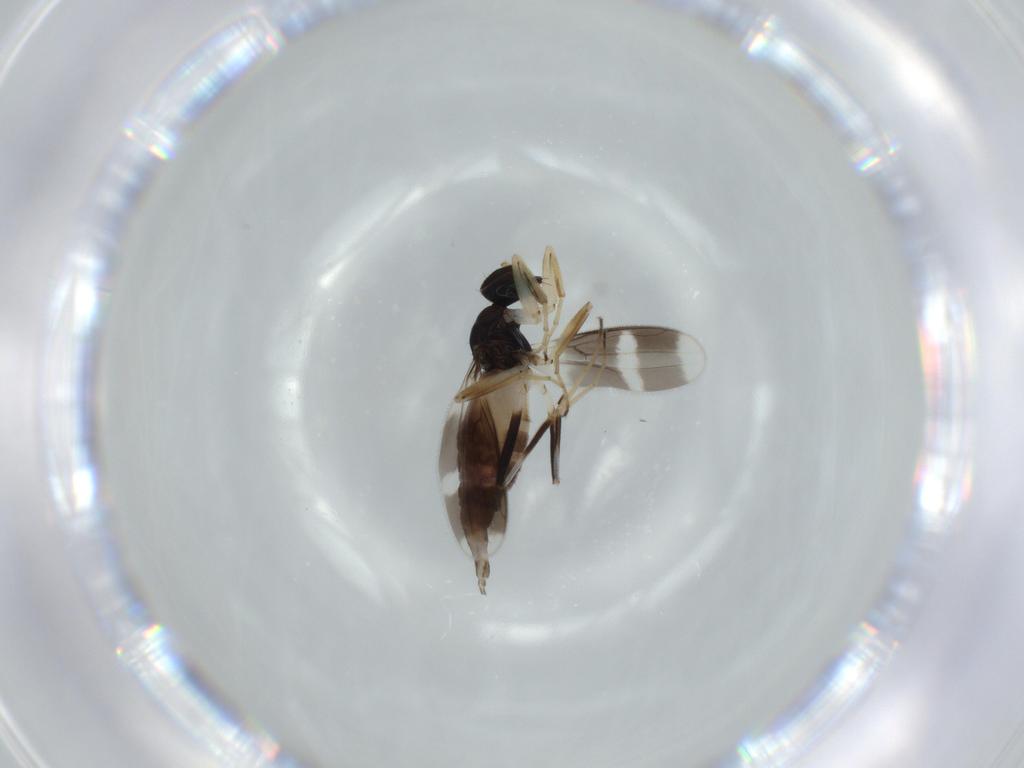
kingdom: Animalia
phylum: Arthropoda
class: Insecta
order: Diptera
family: Hybotidae
